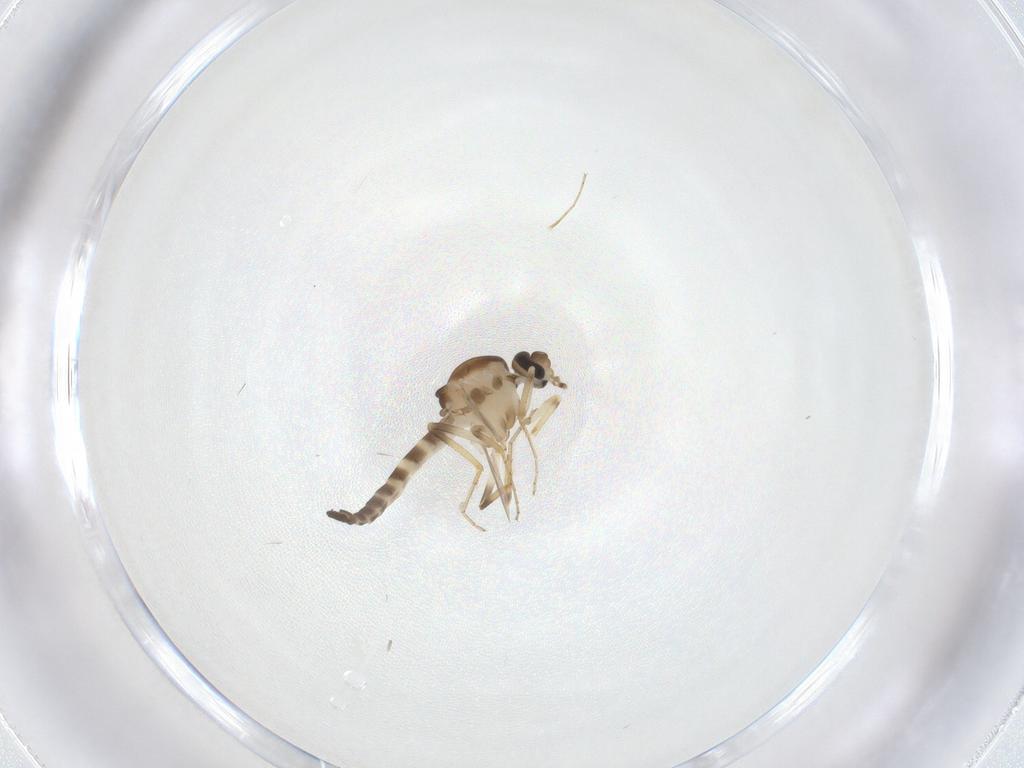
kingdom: Animalia
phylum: Arthropoda
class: Insecta
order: Diptera
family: Ceratopogonidae
